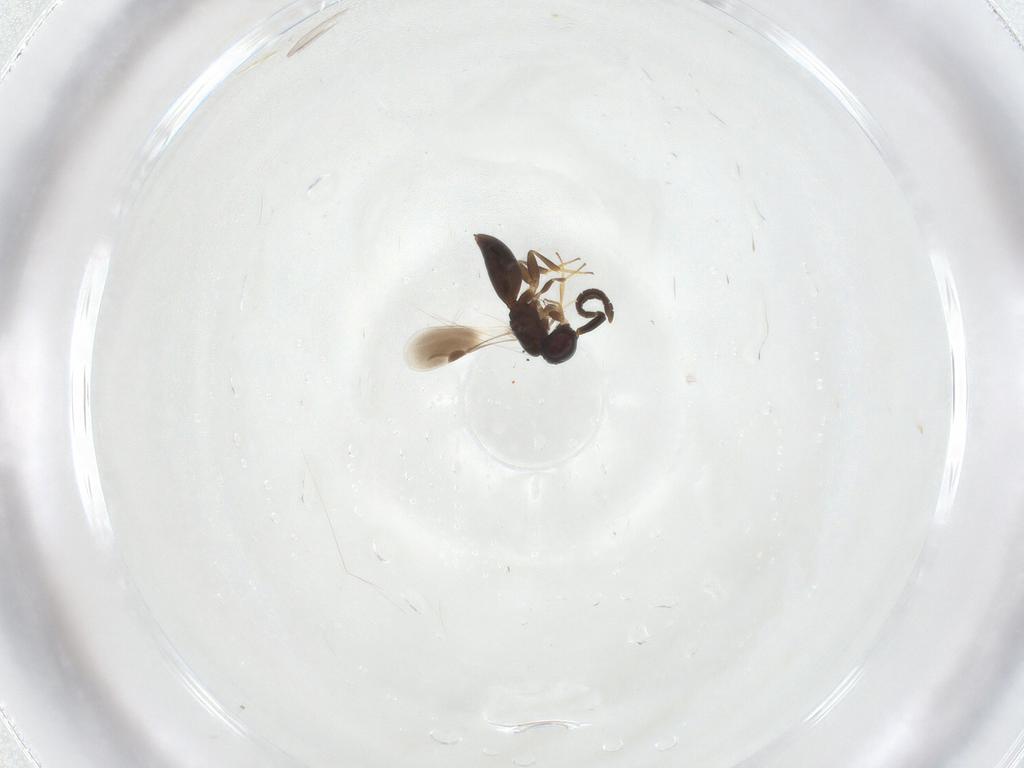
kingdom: Animalia
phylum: Arthropoda
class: Insecta
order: Hymenoptera
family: Megaspilidae
